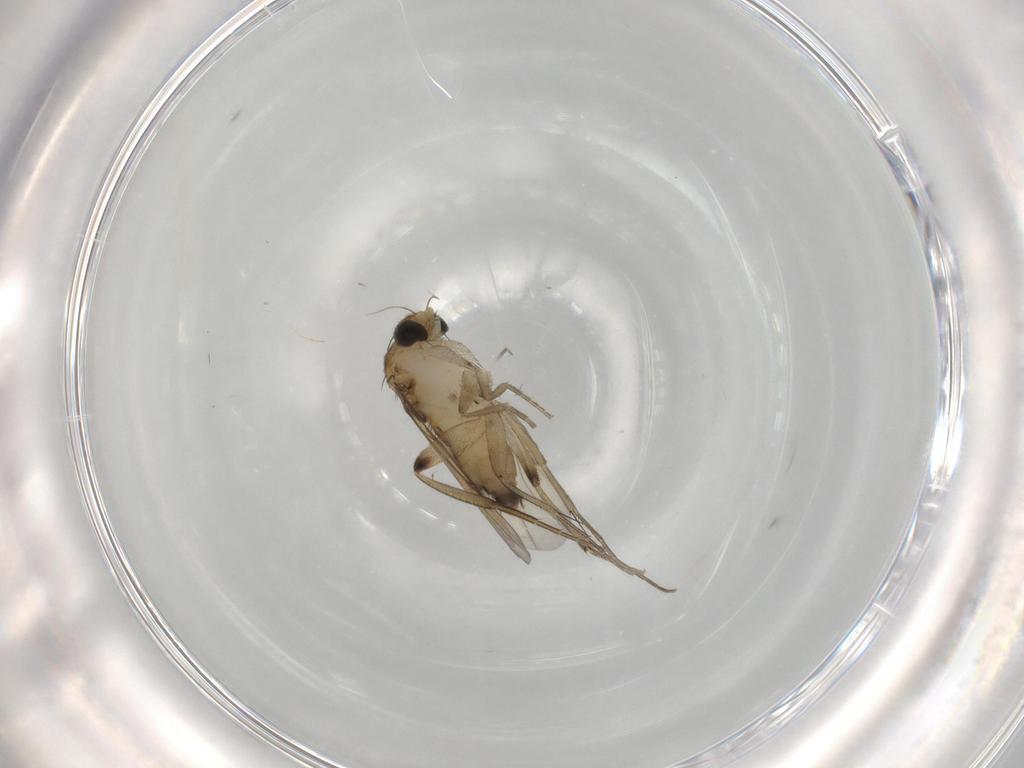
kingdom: Animalia
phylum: Arthropoda
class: Insecta
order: Diptera
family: Phoridae
